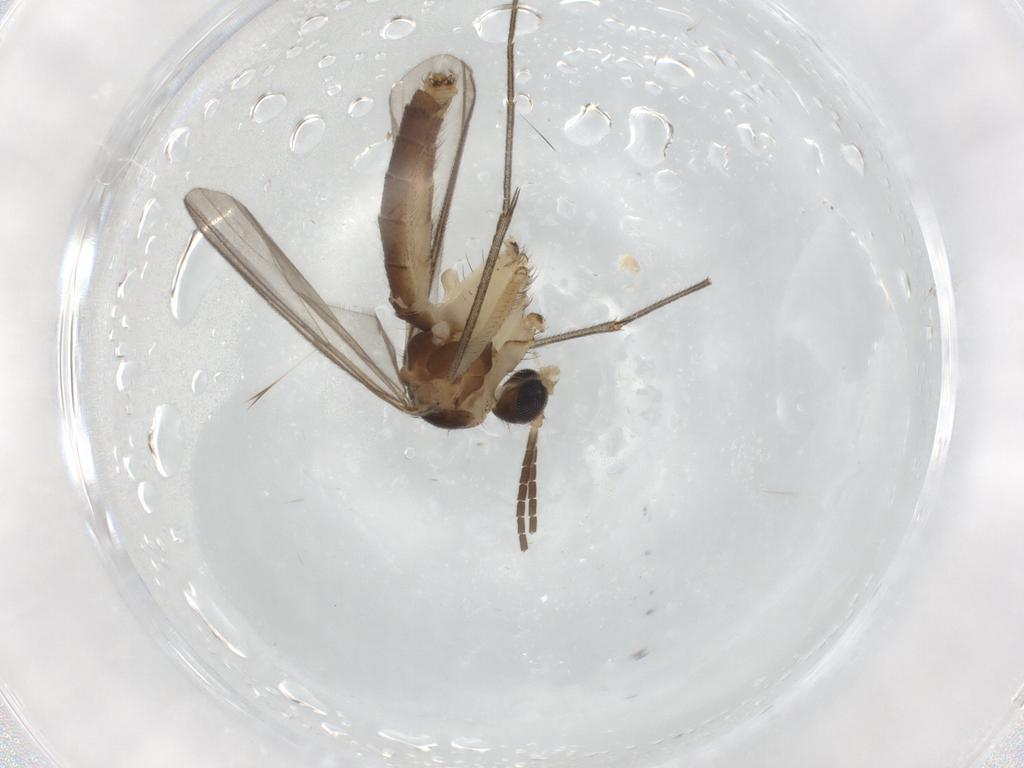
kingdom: Animalia
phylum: Arthropoda
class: Insecta
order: Diptera
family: Mycetophilidae
